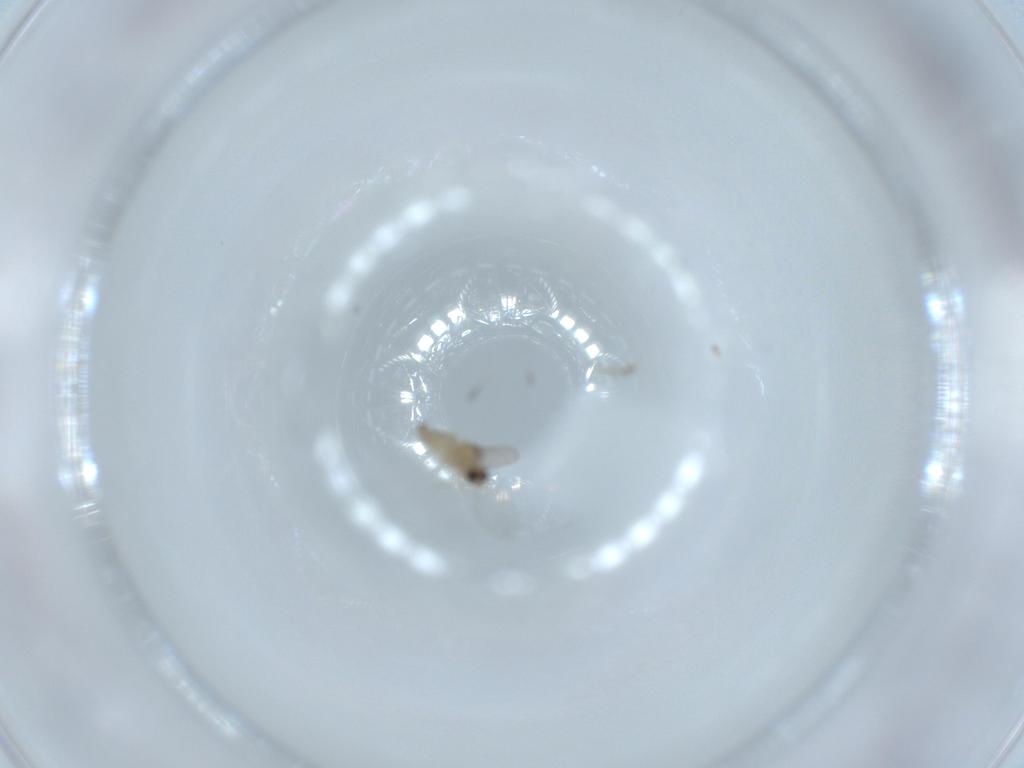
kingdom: Animalia
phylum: Arthropoda
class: Insecta
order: Diptera
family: Cecidomyiidae
